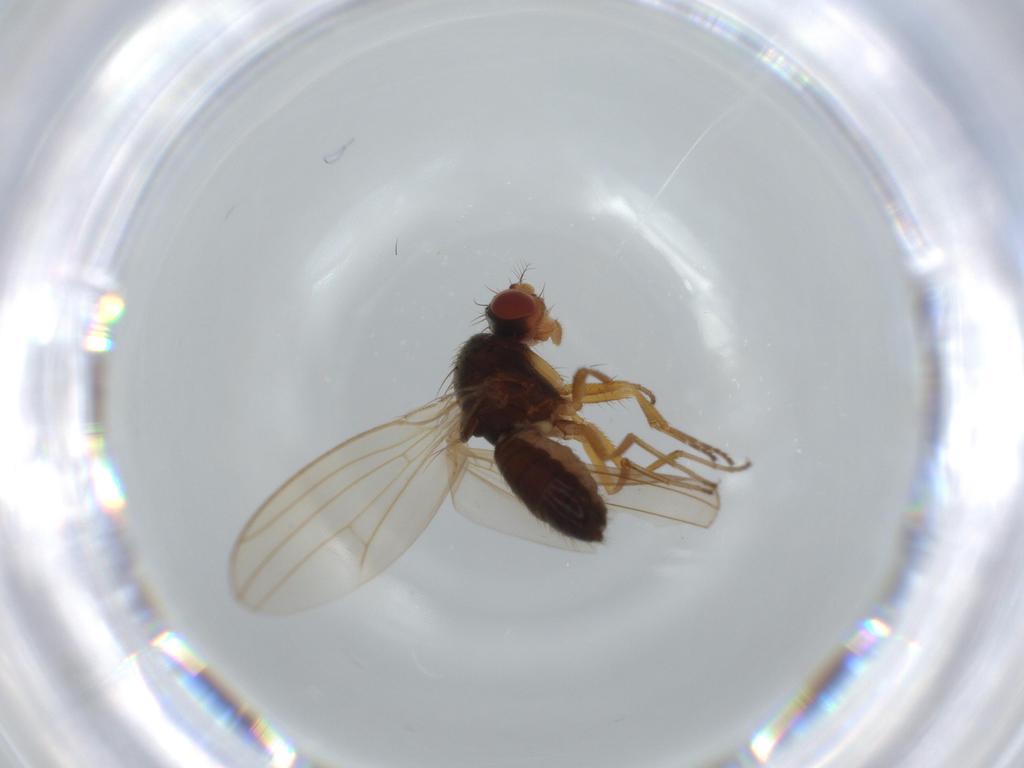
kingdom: Animalia
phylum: Arthropoda
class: Insecta
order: Diptera
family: Drosophilidae
